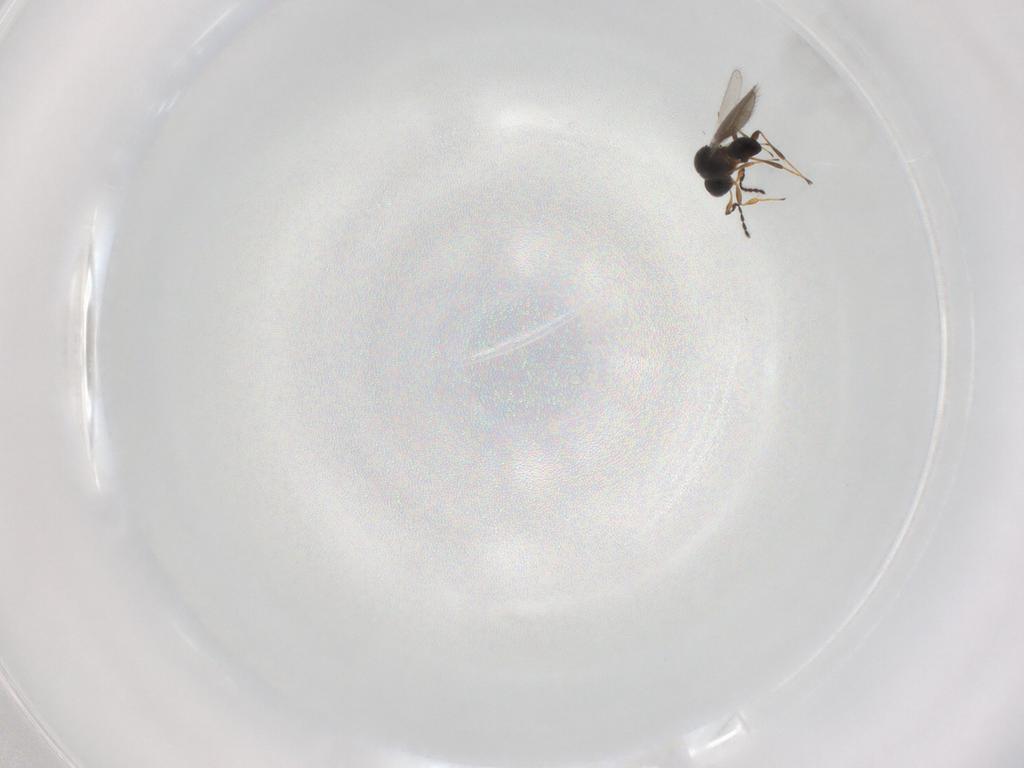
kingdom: Animalia
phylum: Arthropoda
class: Insecta
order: Hymenoptera
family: Platygastridae
